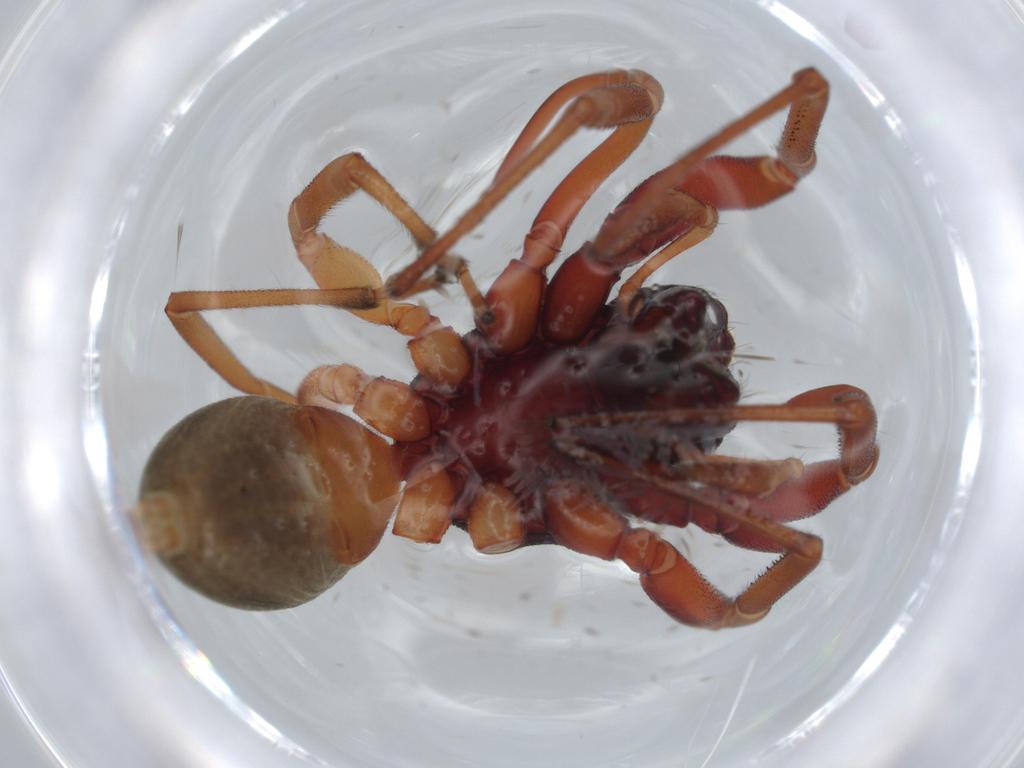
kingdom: Animalia
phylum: Arthropoda
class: Arachnida
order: Araneae
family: Trachelidae
